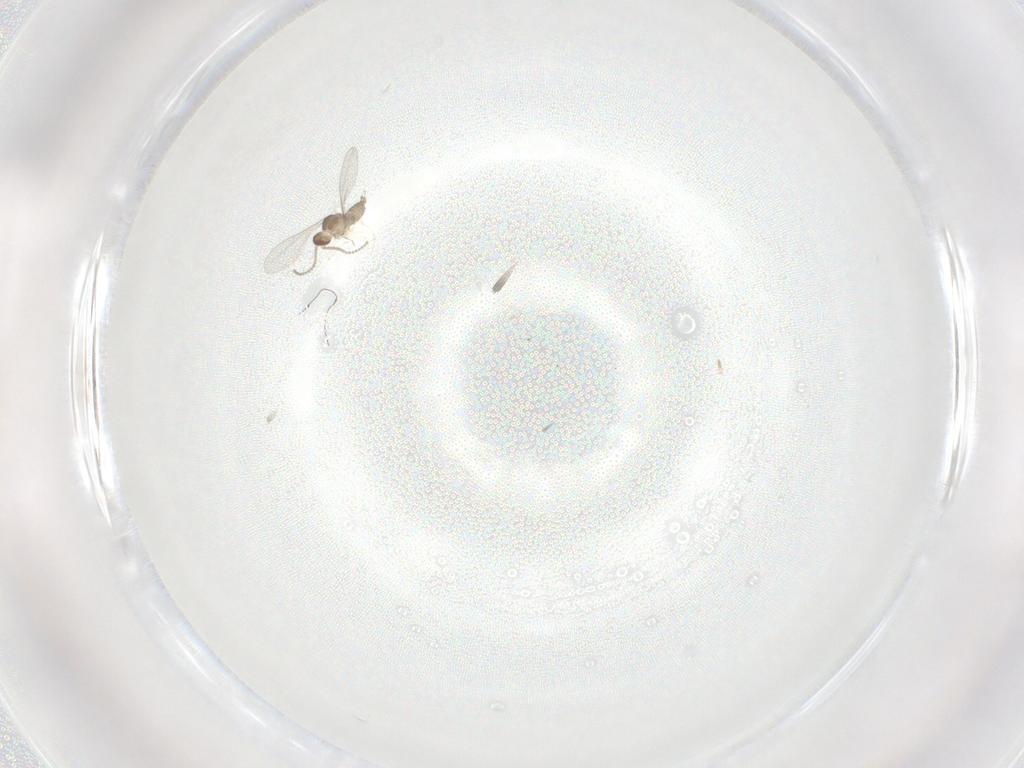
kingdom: Animalia
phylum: Arthropoda
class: Insecta
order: Diptera
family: Cecidomyiidae
